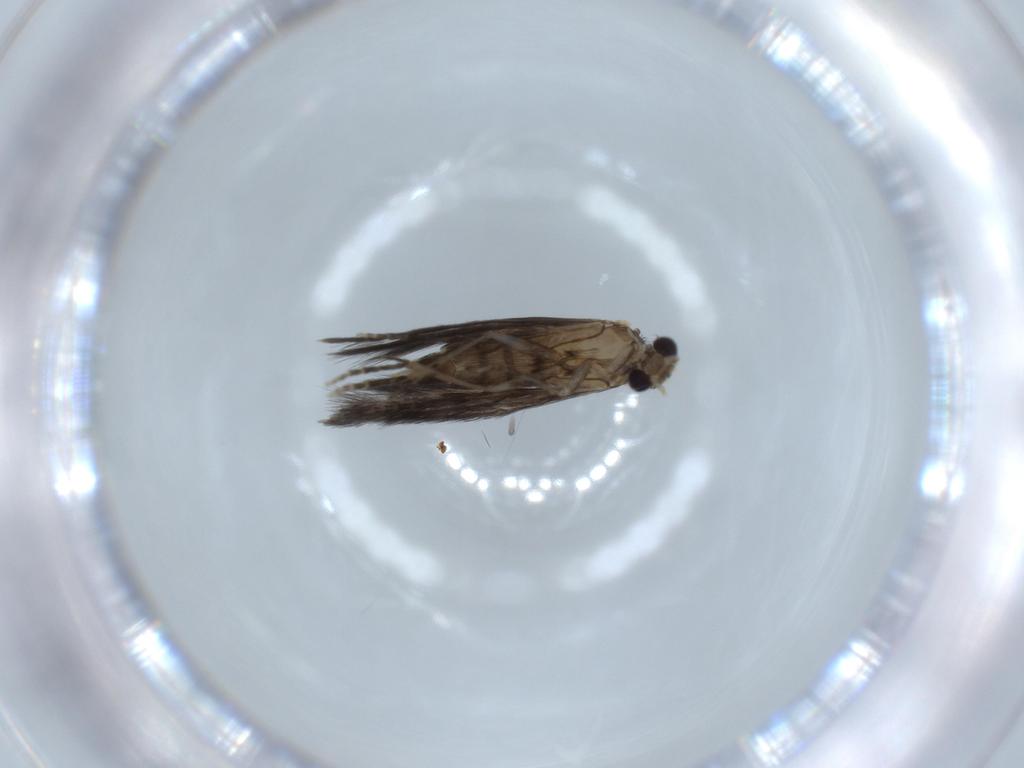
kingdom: Animalia
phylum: Arthropoda
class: Insecta
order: Trichoptera
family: Hydroptilidae
